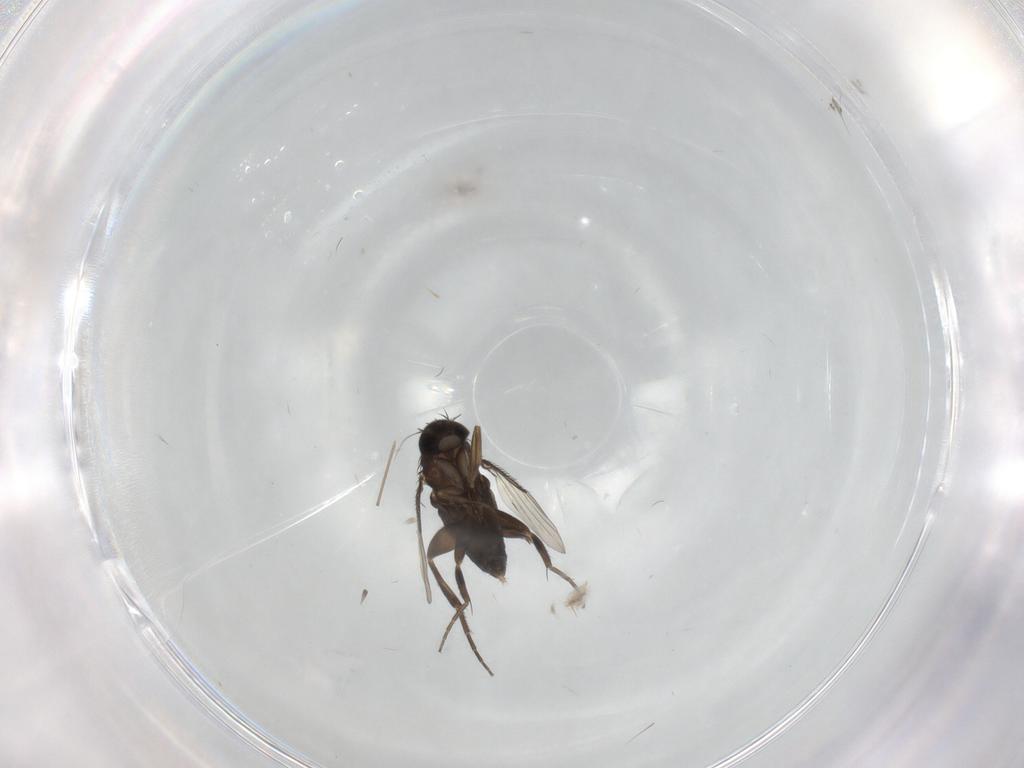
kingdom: Animalia
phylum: Arthropoda
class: Insecta
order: Diptera
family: Phoridae
